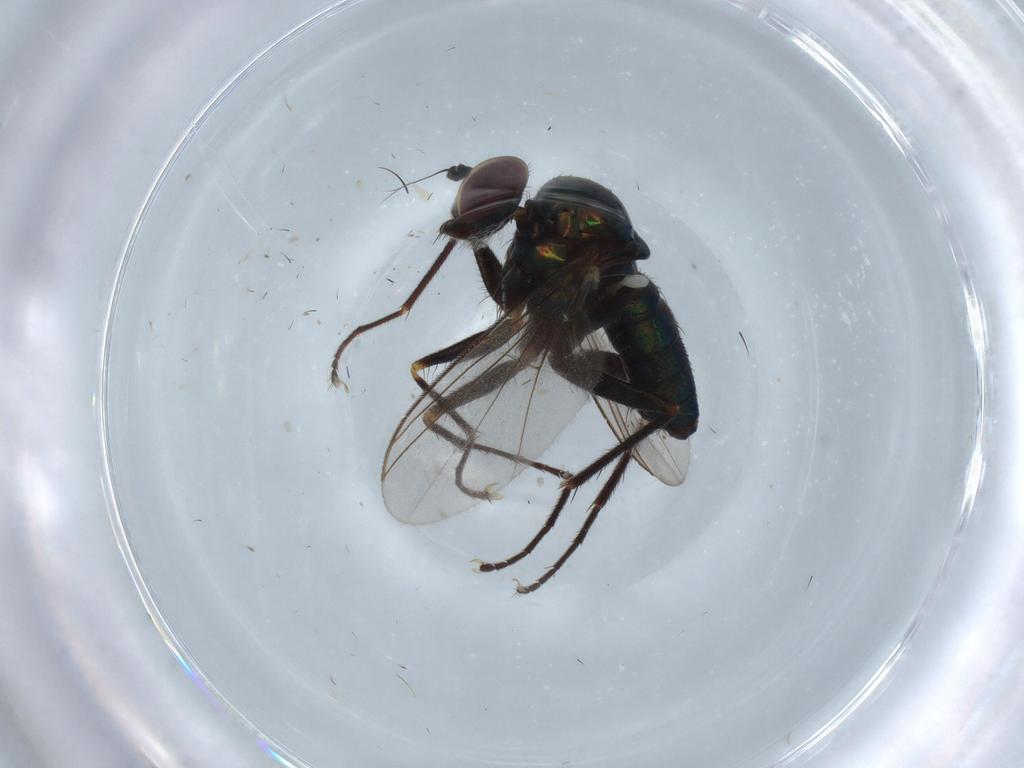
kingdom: Animalia
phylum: Arthropoda
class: Insecta
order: Diptera
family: Dolichopodidae
